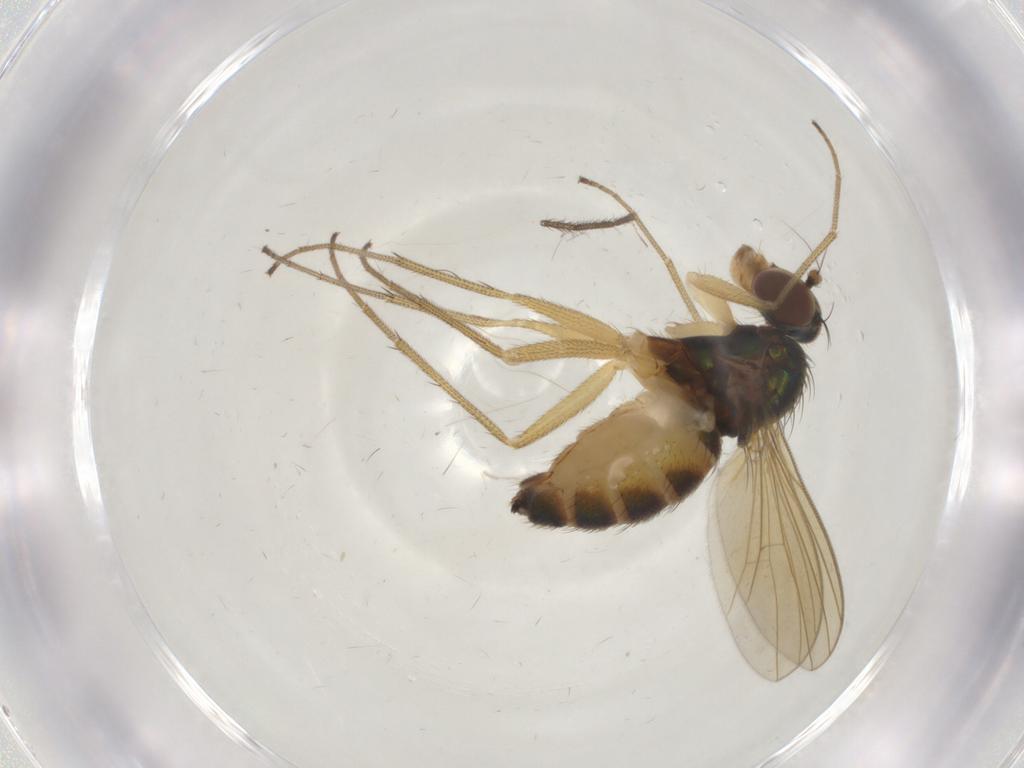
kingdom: Animalia
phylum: Arthropoda
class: Insecta
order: Diptera
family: Dolichopodidae
